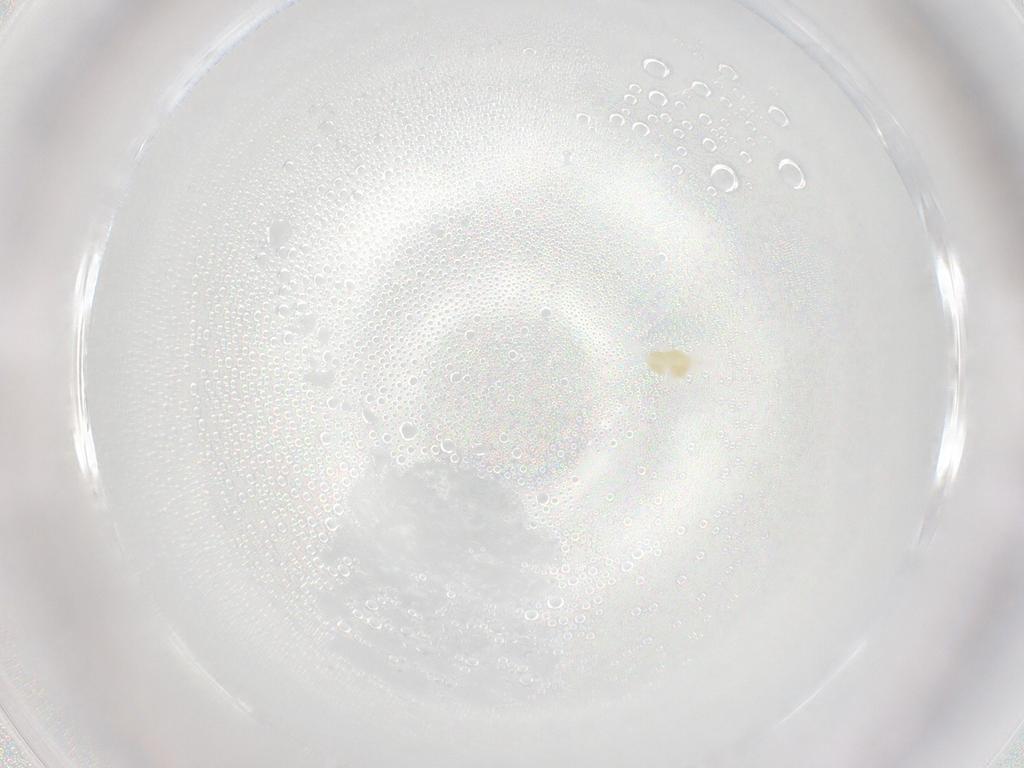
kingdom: Animalia
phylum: Arthropoda
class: Arachnida
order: Trombidiformes
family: Eupodidae
